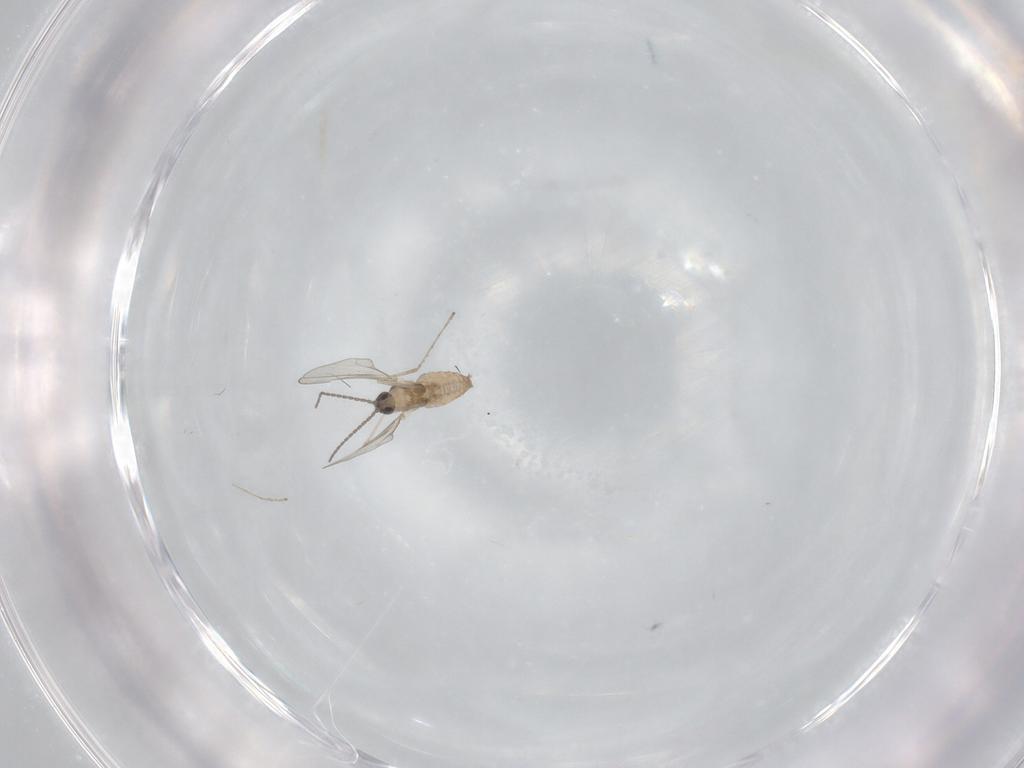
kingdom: Animalia
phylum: Arthropoda
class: Insecta
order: Diptera
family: Cecidomyiidae
